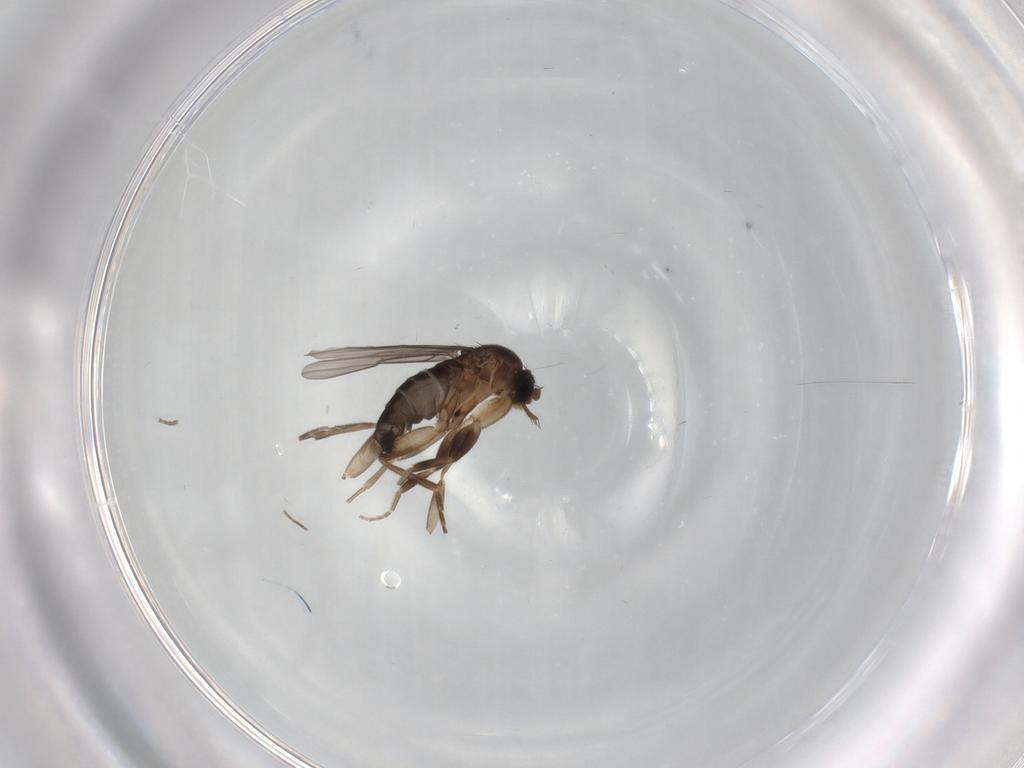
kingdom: Animalia
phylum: Arthropoda
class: Insecta
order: Diptera
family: Phoridae
